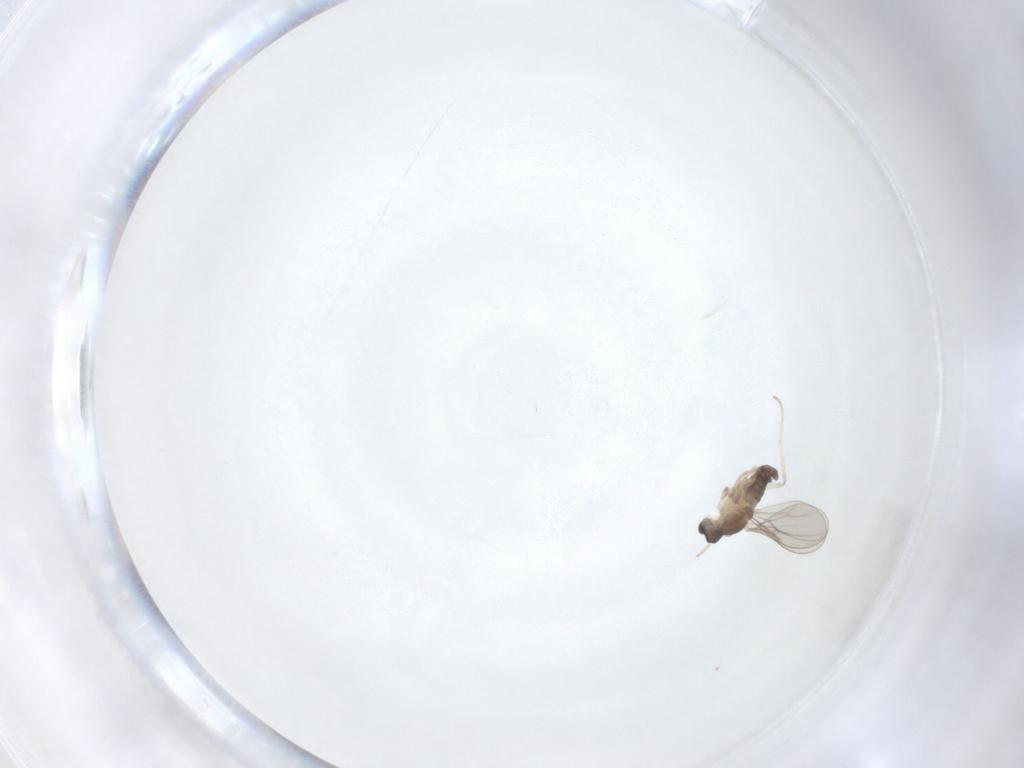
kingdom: Animalia
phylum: Arthropoda
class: Insecta
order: Diptera
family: Cecidomyiidae
